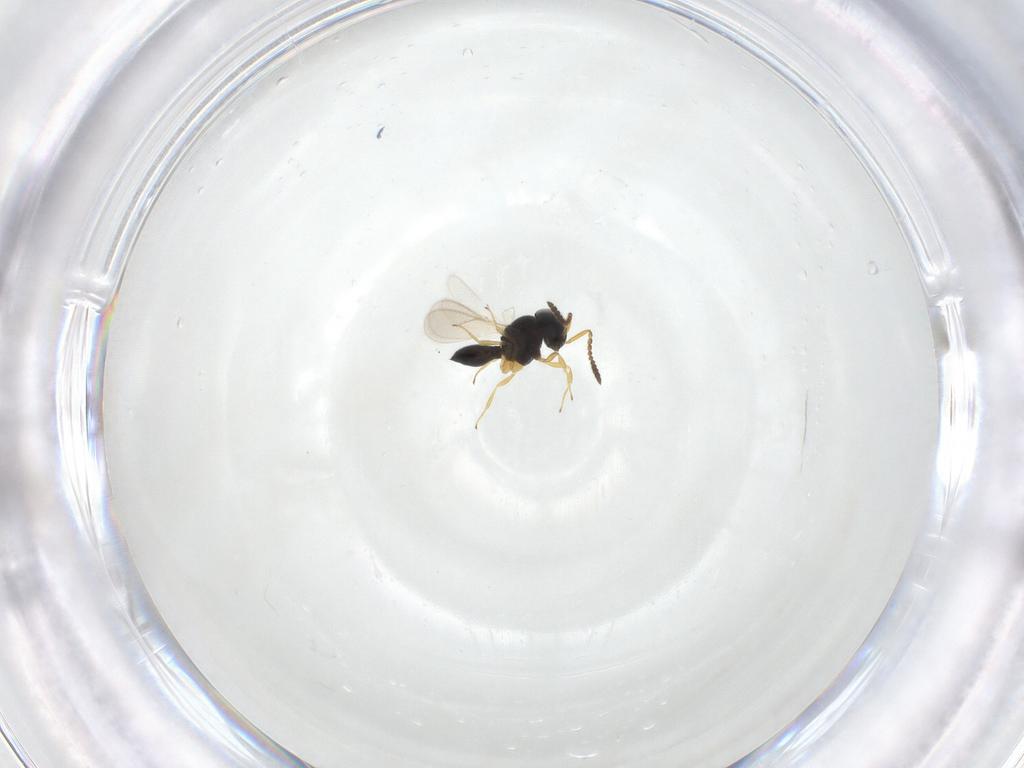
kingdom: Animalia
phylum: Arthropoda
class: Insecta
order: Hymenoptera
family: Scelionidae
